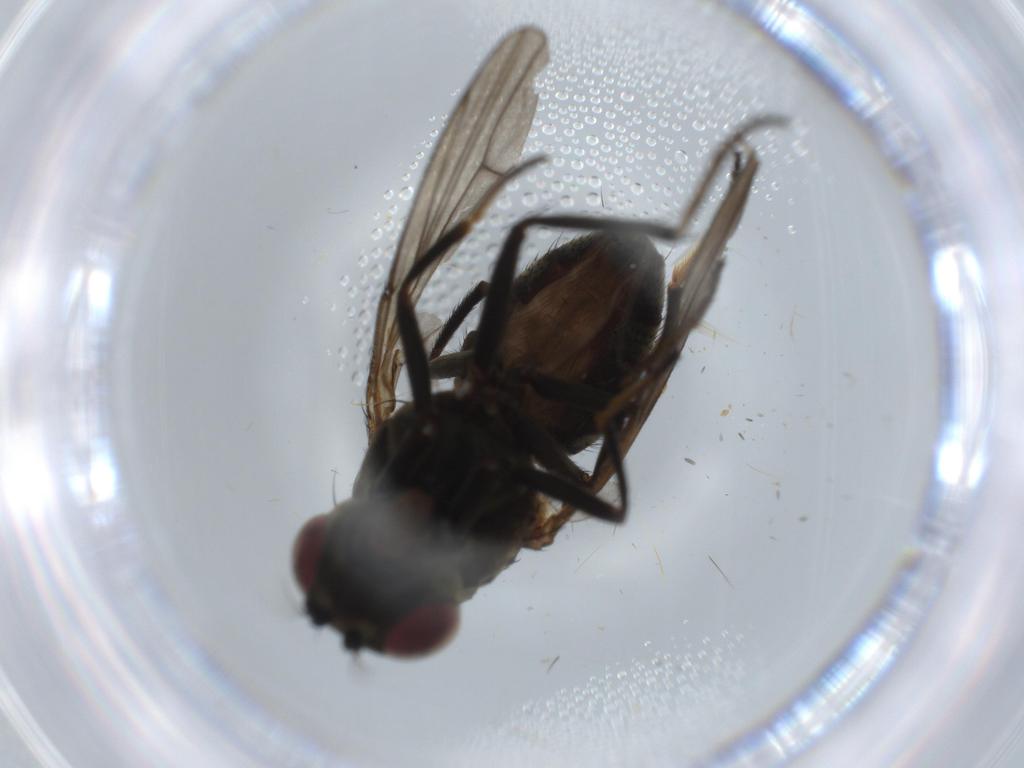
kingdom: Animalia
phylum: Arthropoda
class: Insecta
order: Diptera
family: Ephydridae
